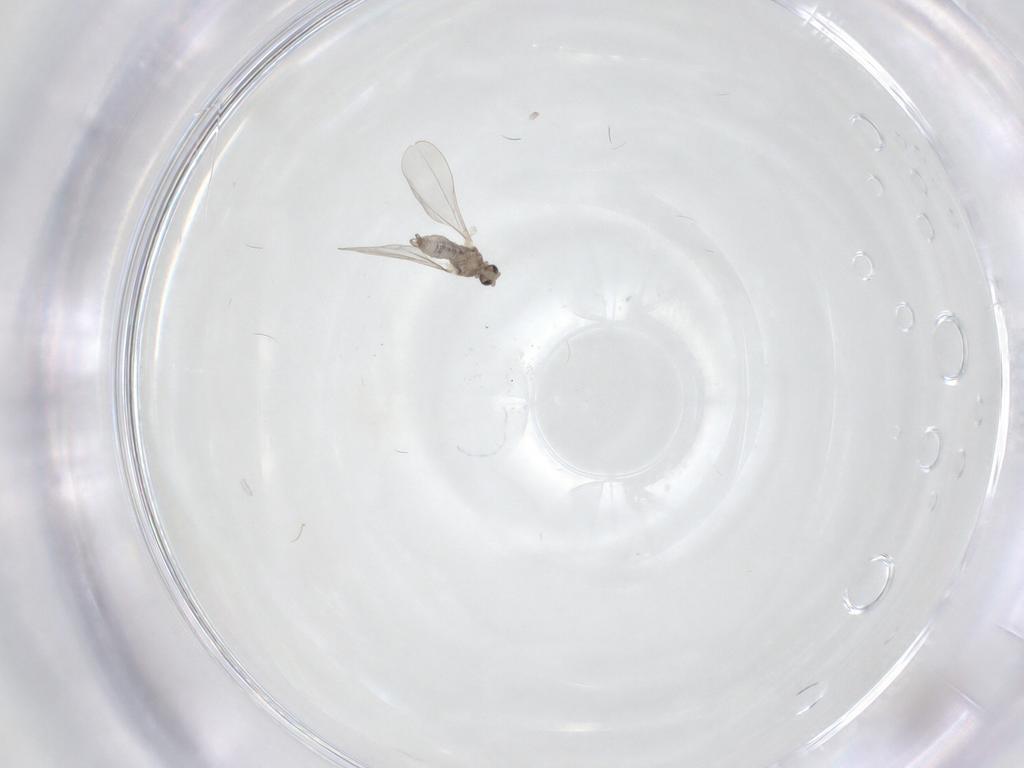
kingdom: Animalia
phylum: Arthropoda
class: Insecta
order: Diptera
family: Cecidomyiidae
